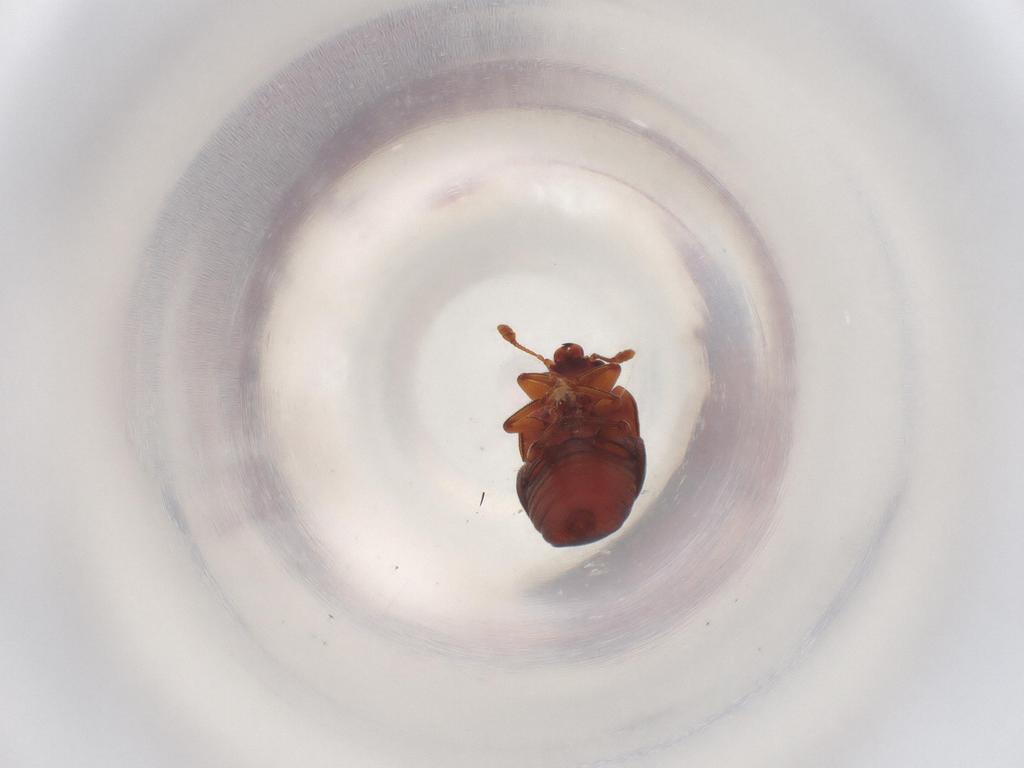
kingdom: Animalia
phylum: Arthropoda
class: Insecta
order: Coleoptera
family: Nitidulidae
